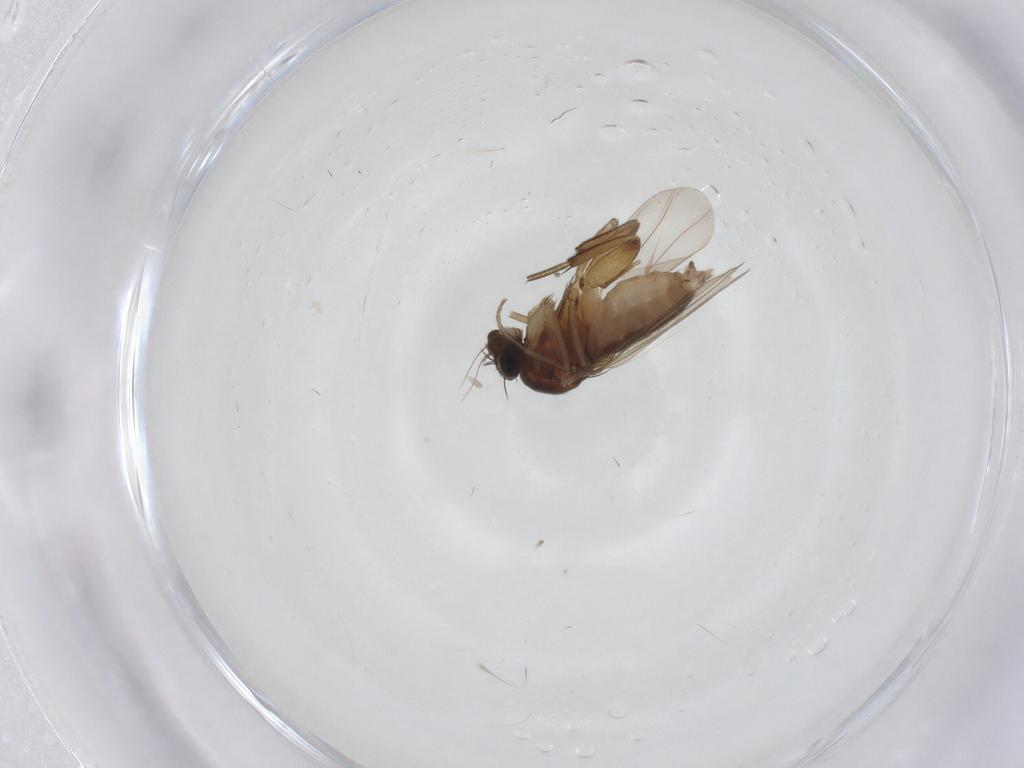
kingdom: Animalia
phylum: Arthropoda
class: Insecta
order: Diptera
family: Phoridae
